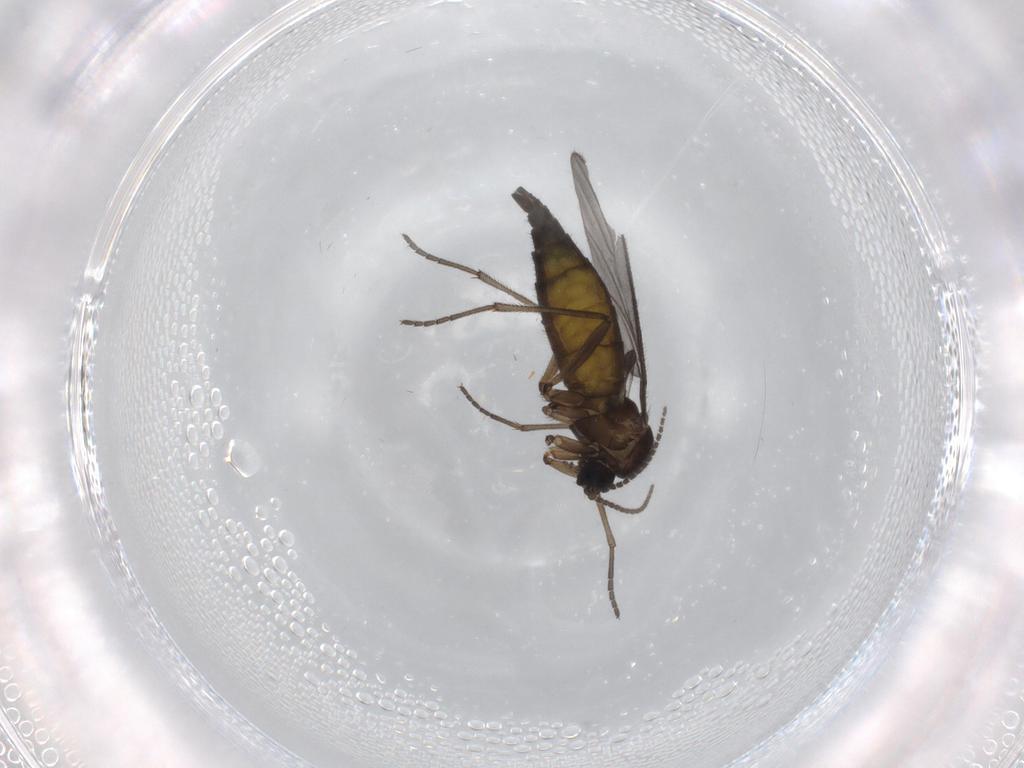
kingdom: Animalia
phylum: Arthropoda
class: Insecta
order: Diptera
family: Sciaridae
